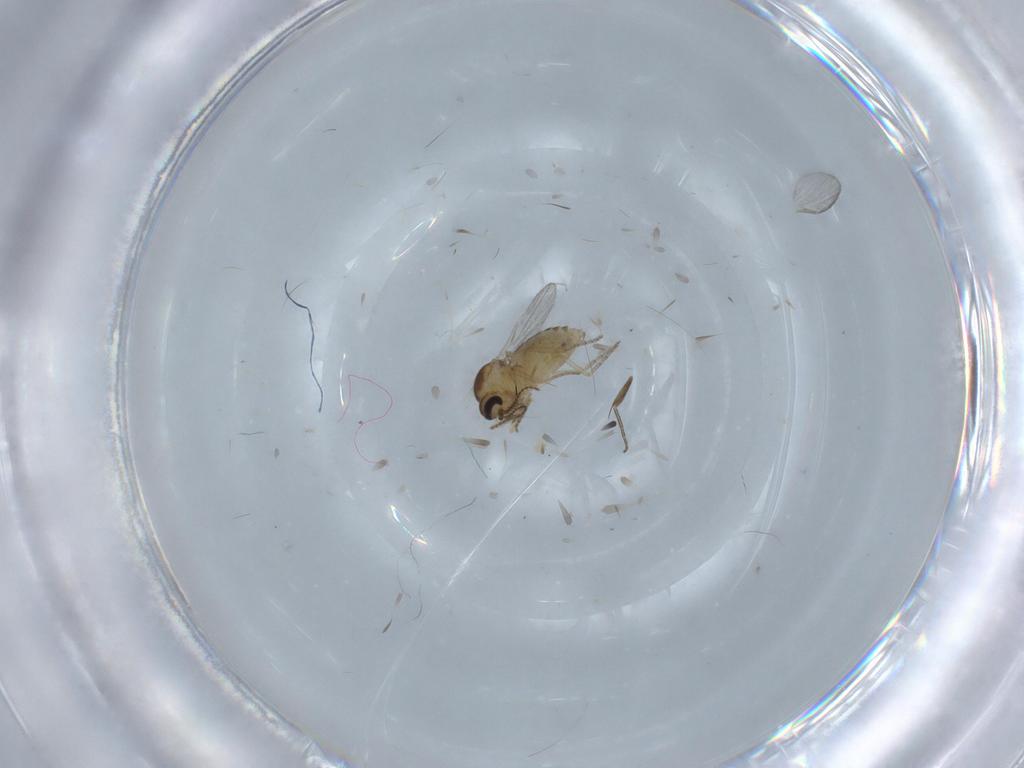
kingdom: Animalia
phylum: Arthropoda
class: Insecta
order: Diptera
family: Ceratopogonidae
